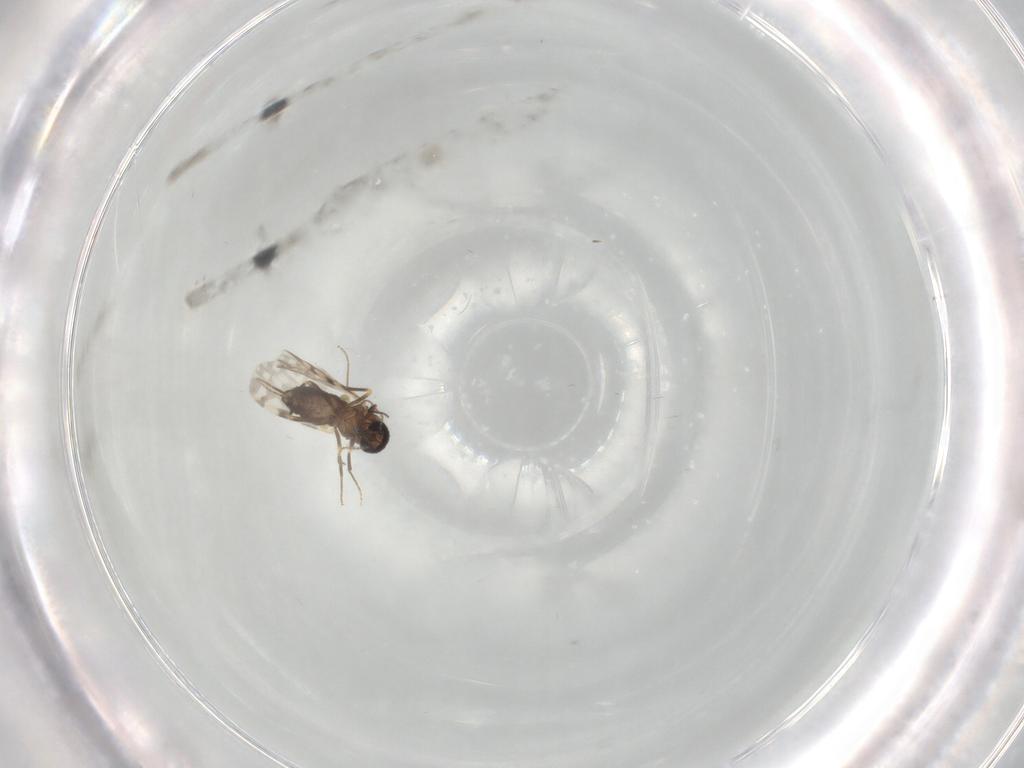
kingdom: Animalia
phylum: Arthropoda
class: Insecta
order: Diptera
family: Ceratopogonidae
